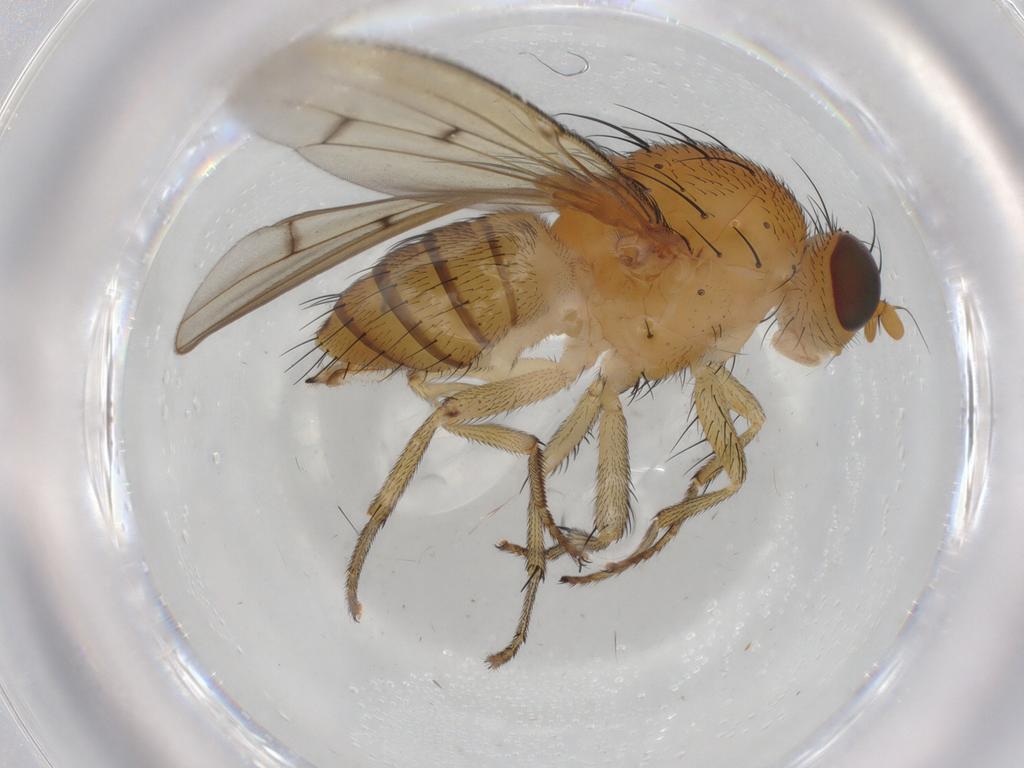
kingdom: Animalia
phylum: Arthropoda
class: Insecta
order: Diptera
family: Lauxaniidae
